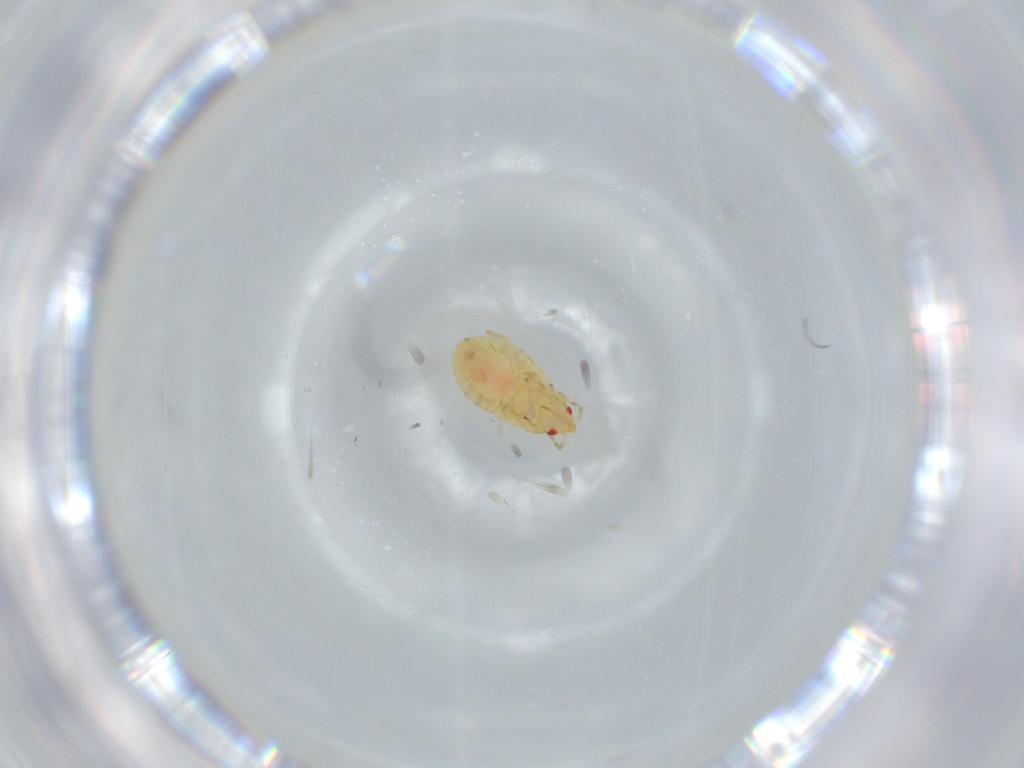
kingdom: Animalia
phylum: Arthropoda
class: Insecta
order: Hemiptera
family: Anthocoridae
